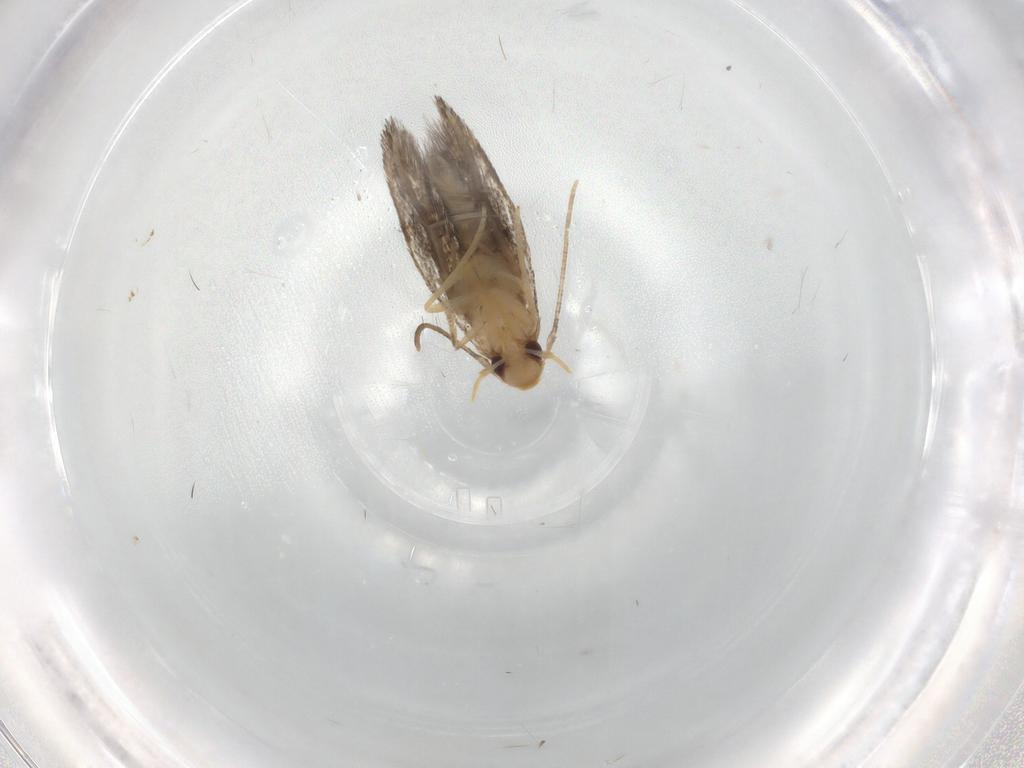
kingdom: Animalia
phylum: Arthropoda
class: Insecta
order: Lepidoptera
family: Gelechiidae
